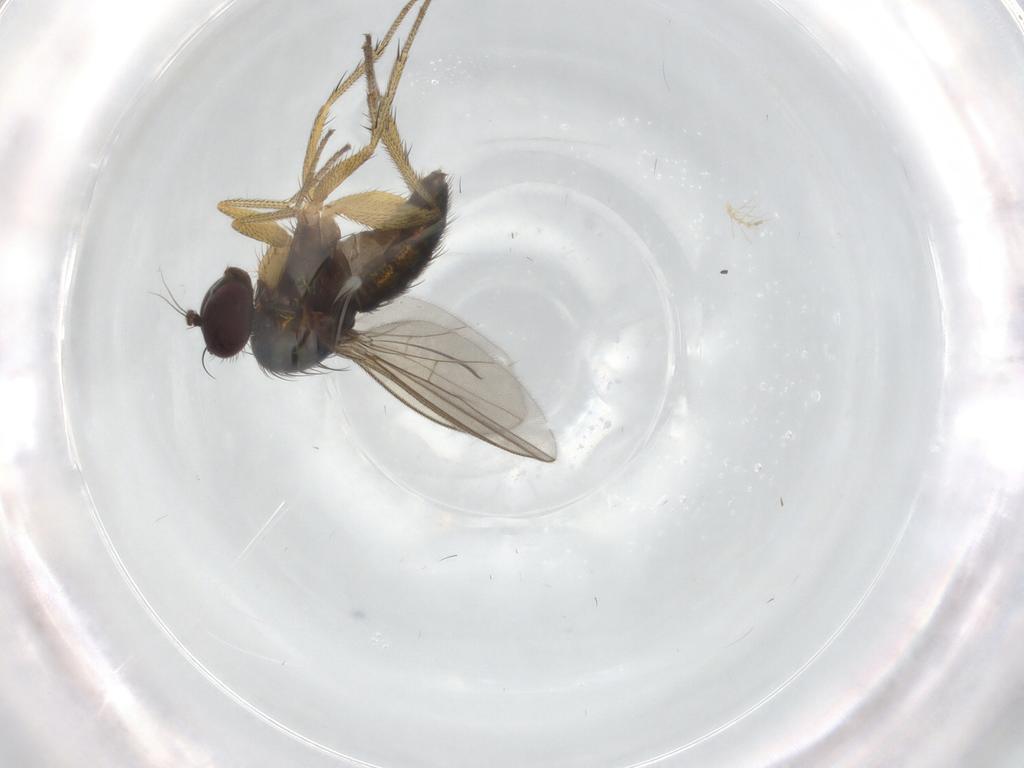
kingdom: Animalia
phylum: Arthropoda
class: Insecta
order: Diptera
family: Dolichopodidae
